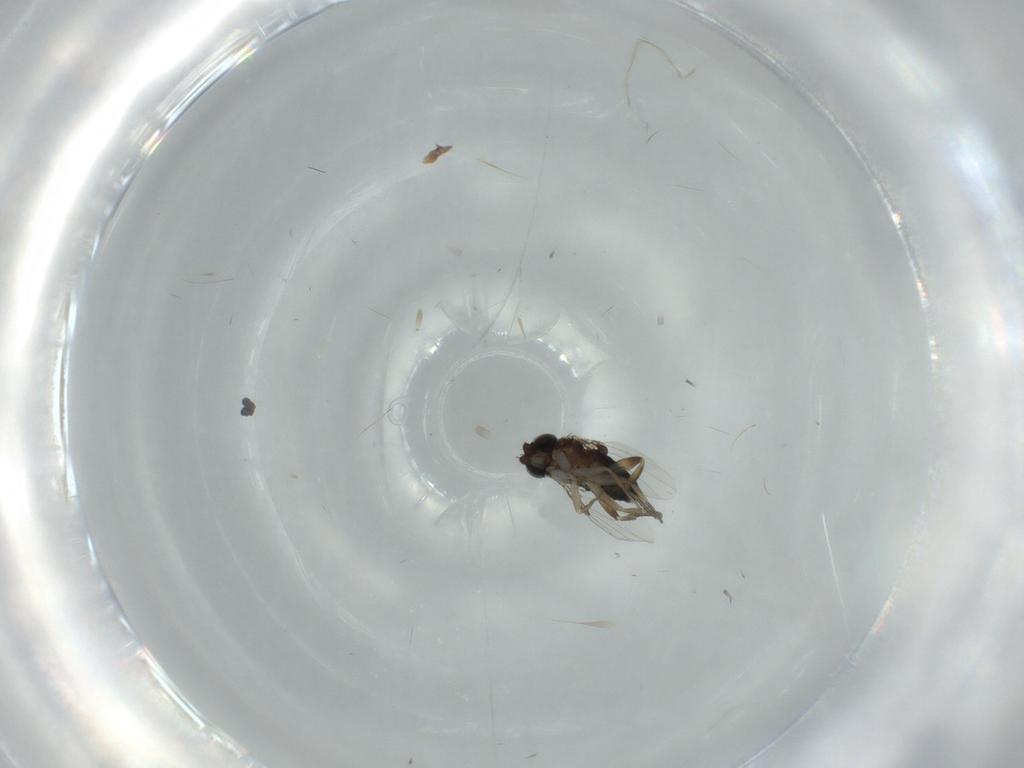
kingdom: Animalia
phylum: Arthropoda
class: Insecta
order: Diptera
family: Phoridae
